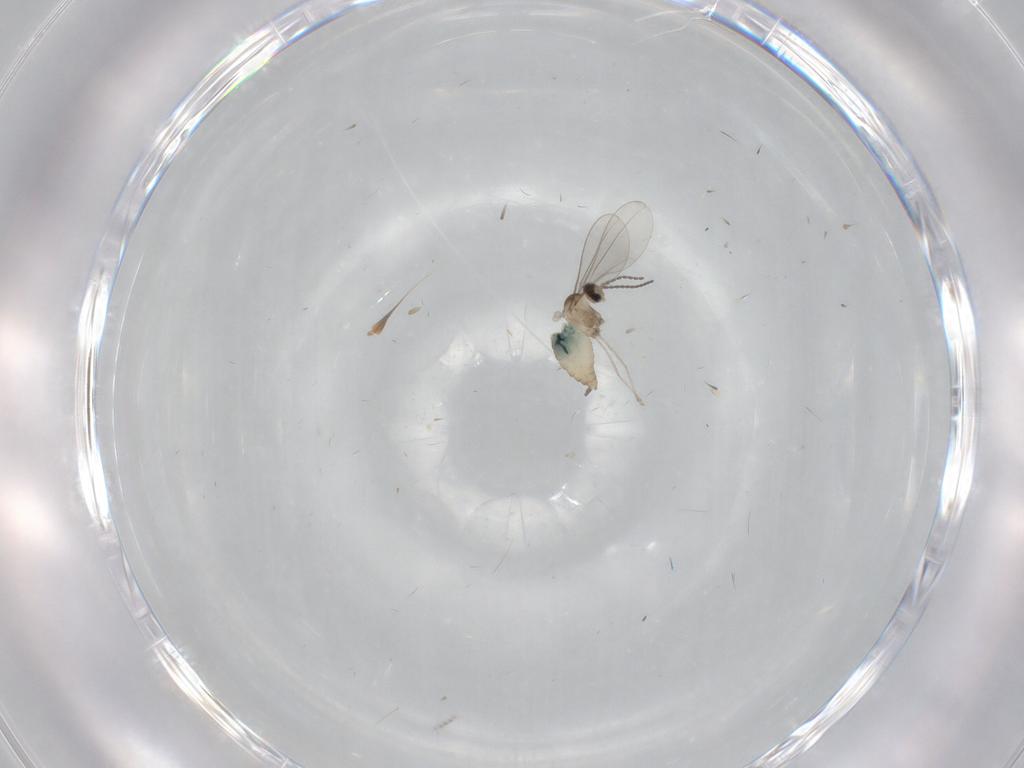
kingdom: Animalia
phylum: Arthropoda
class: Insecta
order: Diptera
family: Cecidomyiidae
